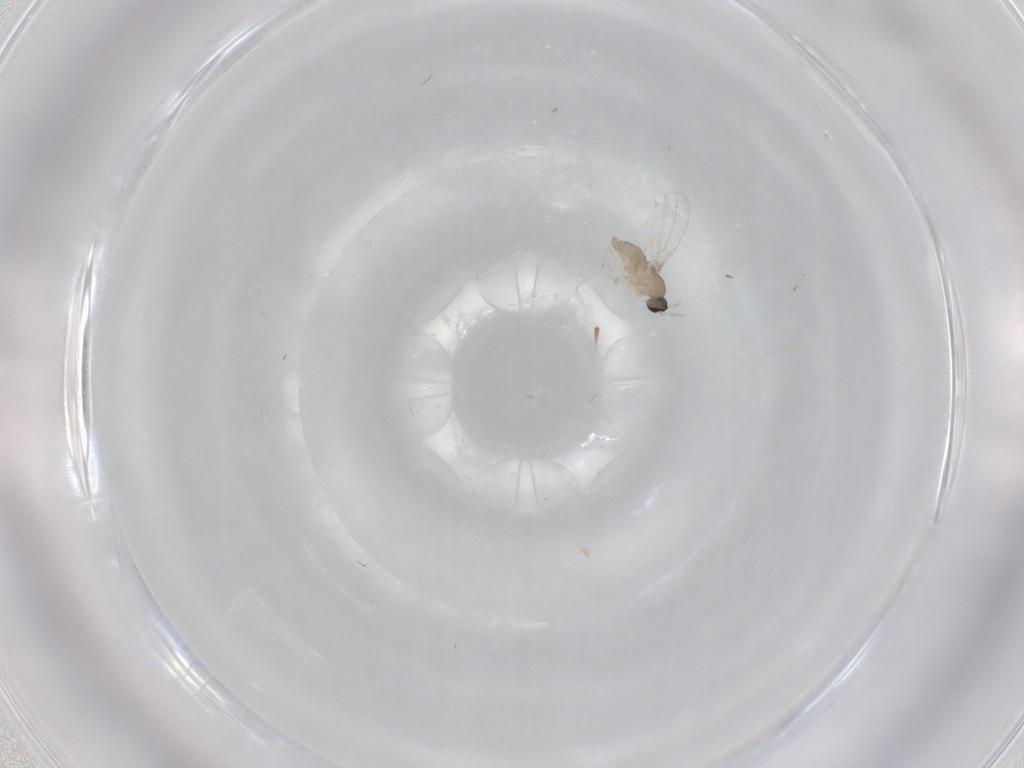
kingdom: Animalia
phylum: Arthropoda
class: Insecta
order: Diptera
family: Cecidomyiidae
